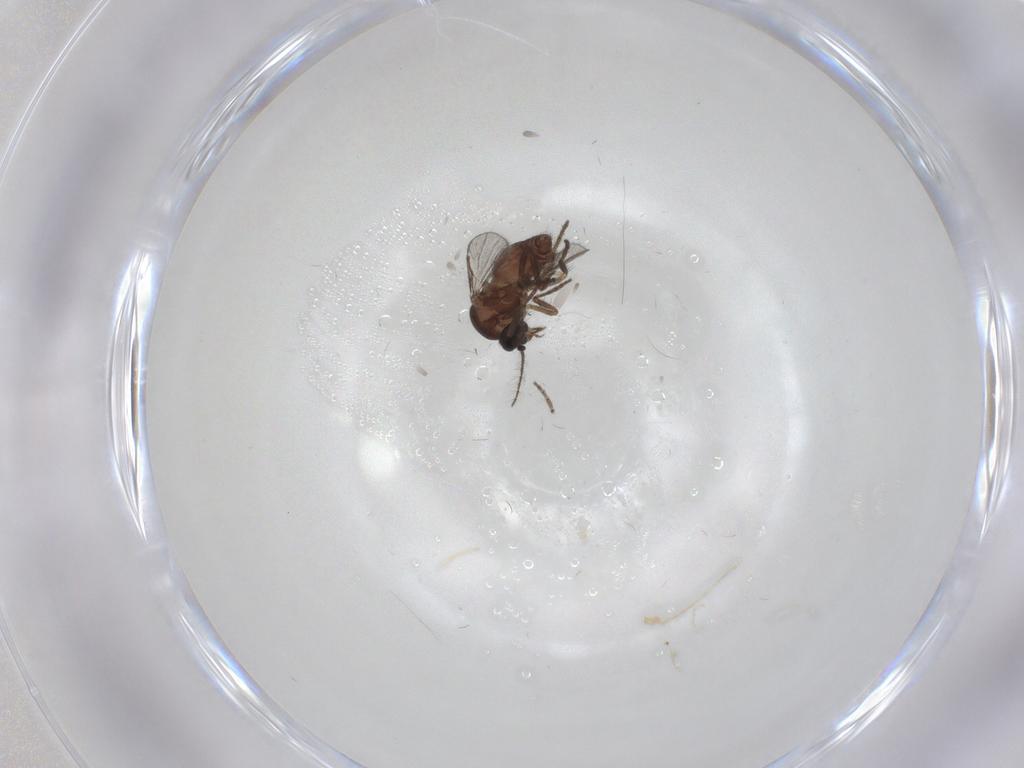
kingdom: Animalia
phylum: Arthropoda
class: Insecta
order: Diptera
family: Ceratopogonidae
